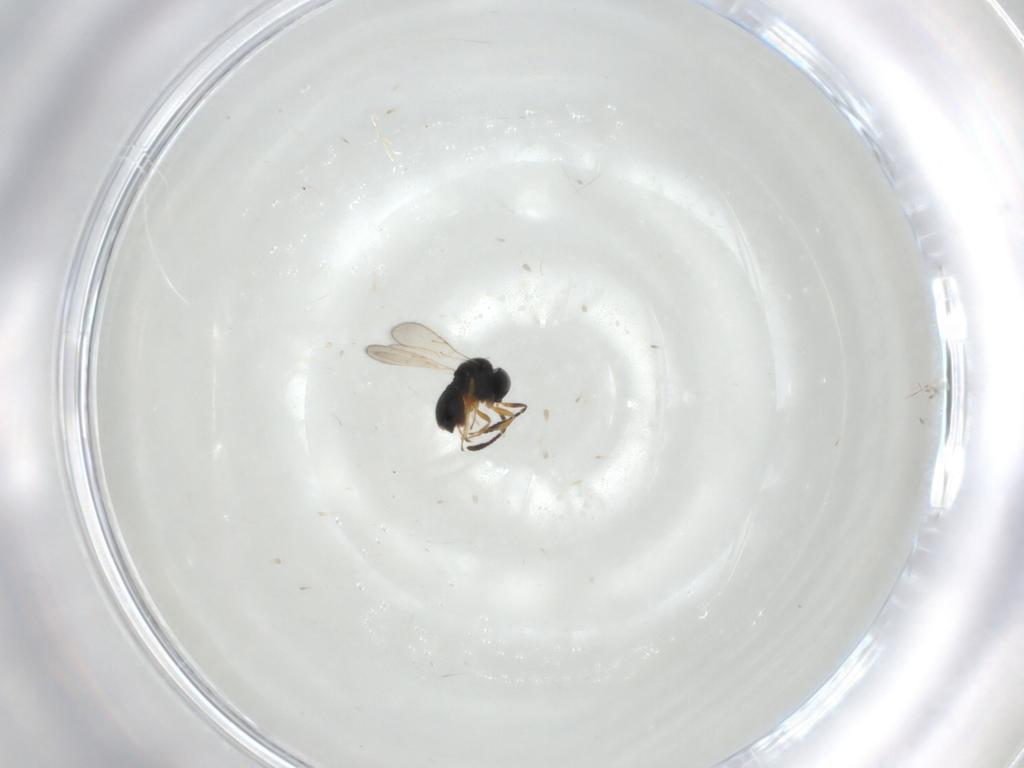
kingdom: Animalia
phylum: Arthropoda
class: Insecta
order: Hymenoptera
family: Scelionidae
